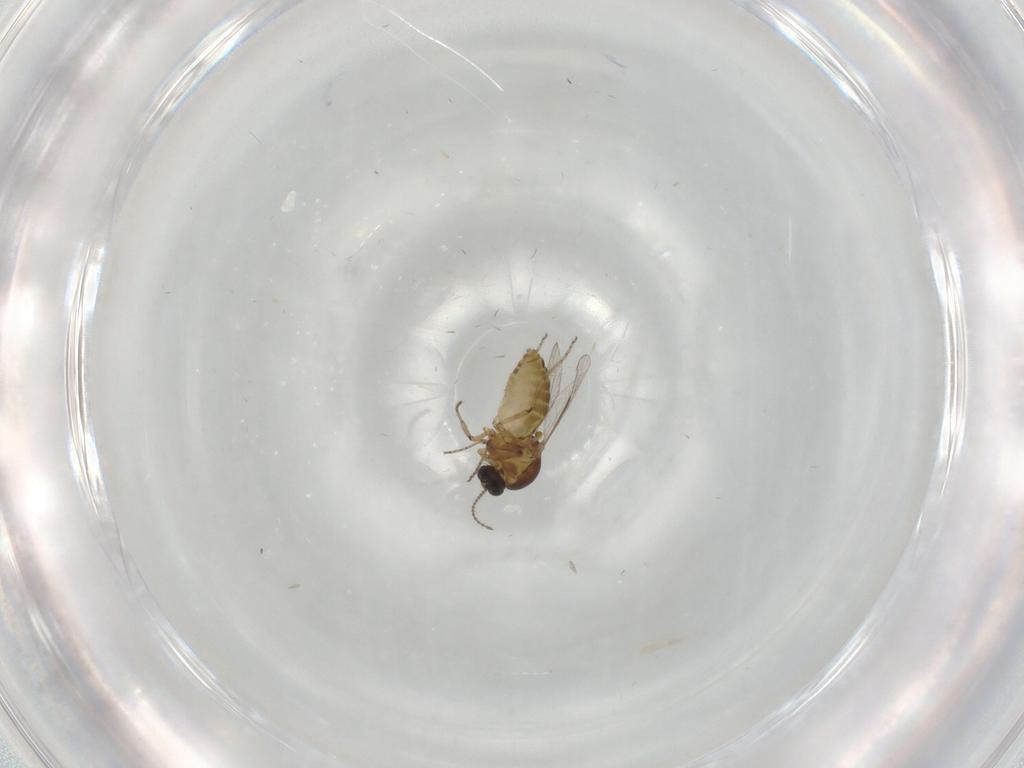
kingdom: Animalia
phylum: Arthropoda
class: Insecta
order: Diptera
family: Ceratopogonidae
